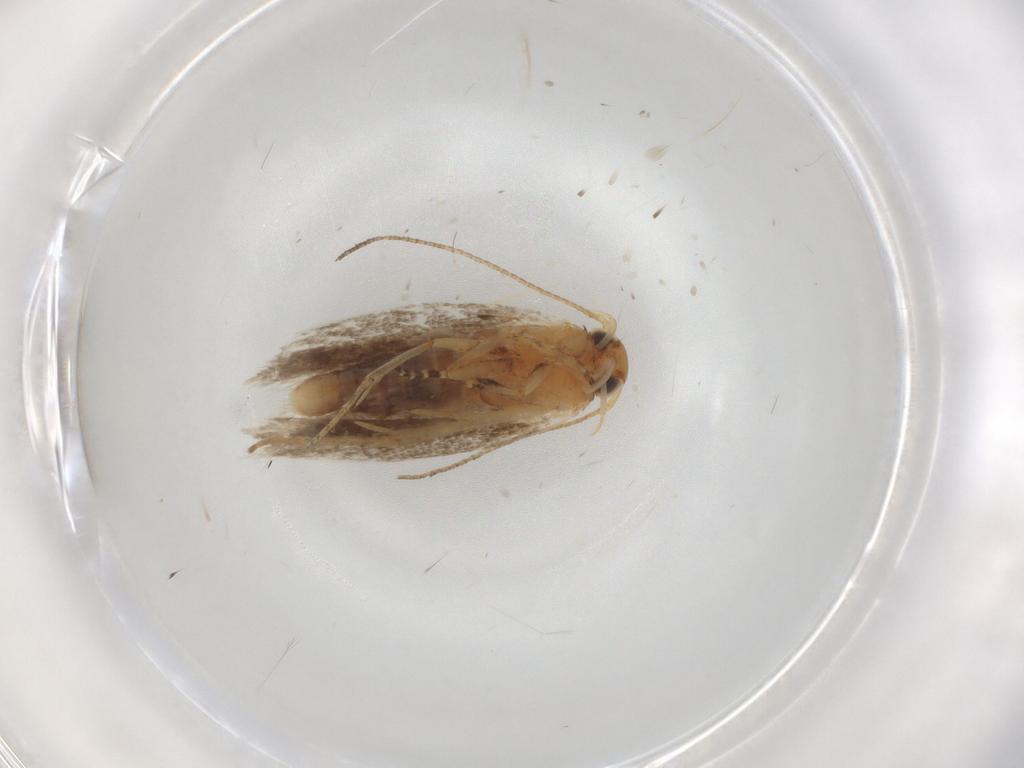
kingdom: Animalia
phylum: Arthropoda
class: Insecta
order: Lepidoptera
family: Gelechiidae
